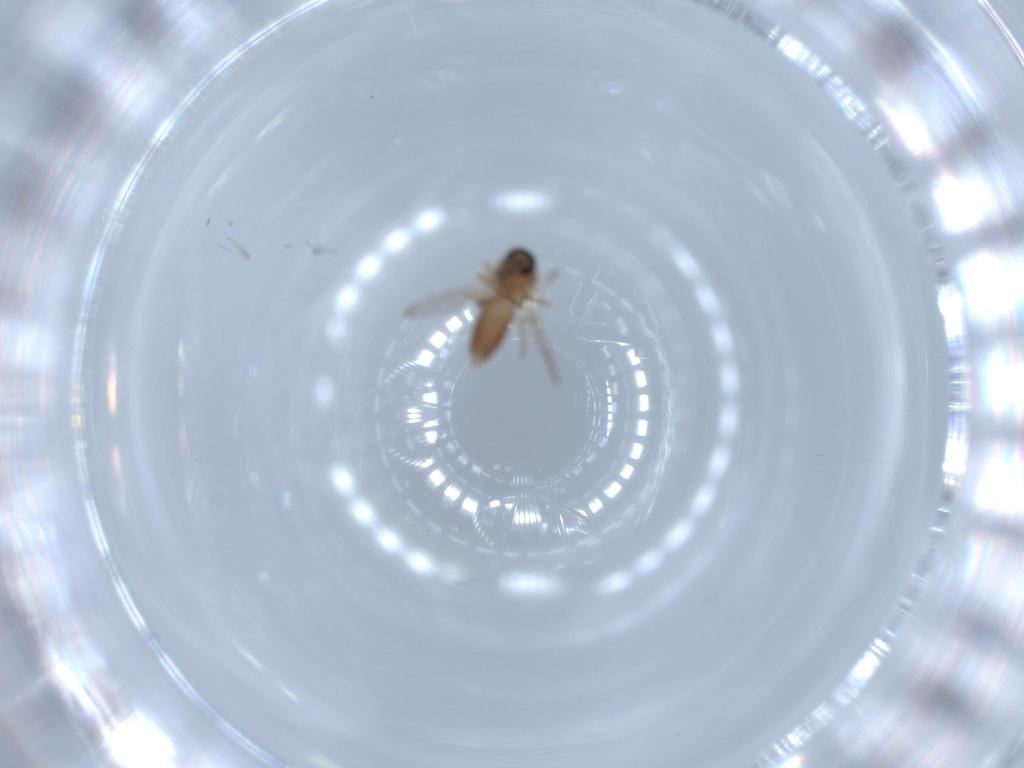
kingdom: Animalia
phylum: Arthropoda
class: Insecta
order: Diptera
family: Ceratopogonidae
